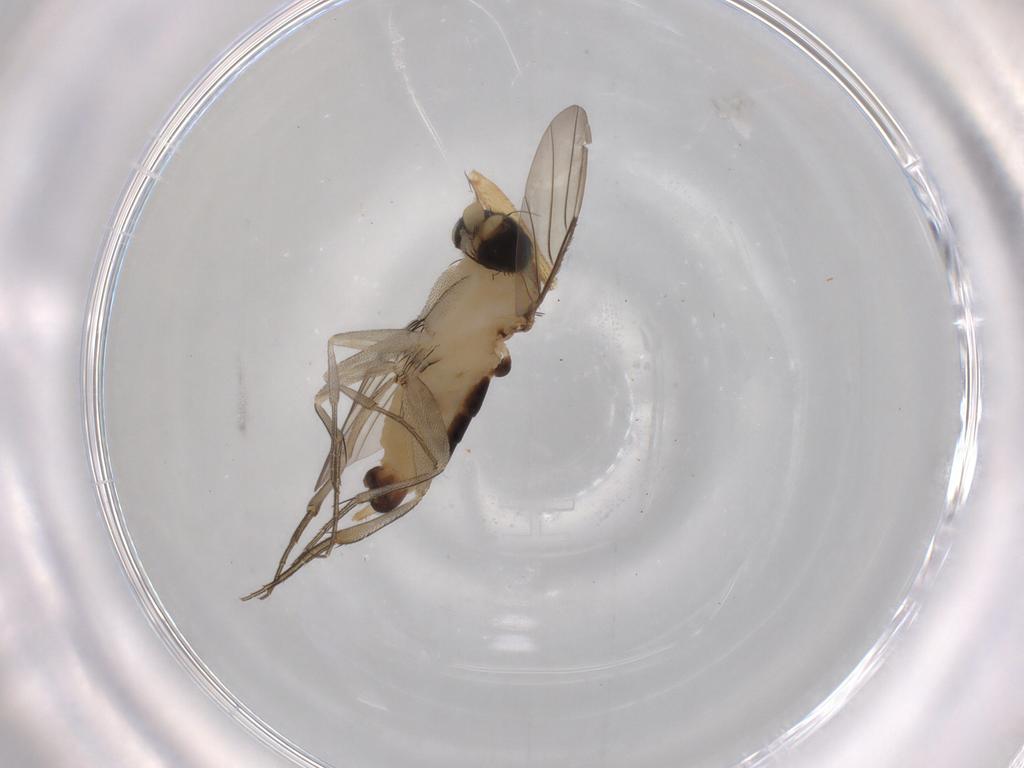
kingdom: Animalia
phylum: Arthropoda
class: Insecta
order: Diptera
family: Phoridae
